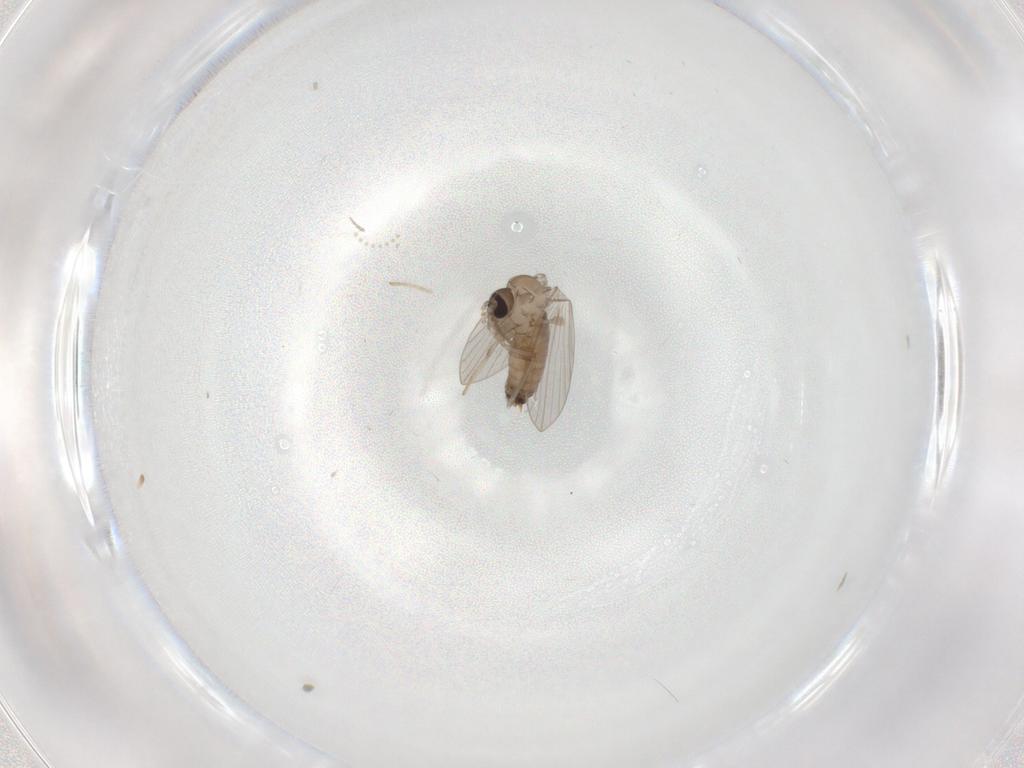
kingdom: Animalia
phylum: Arthropoda
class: Insecta
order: Diptera
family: Psychodidae
